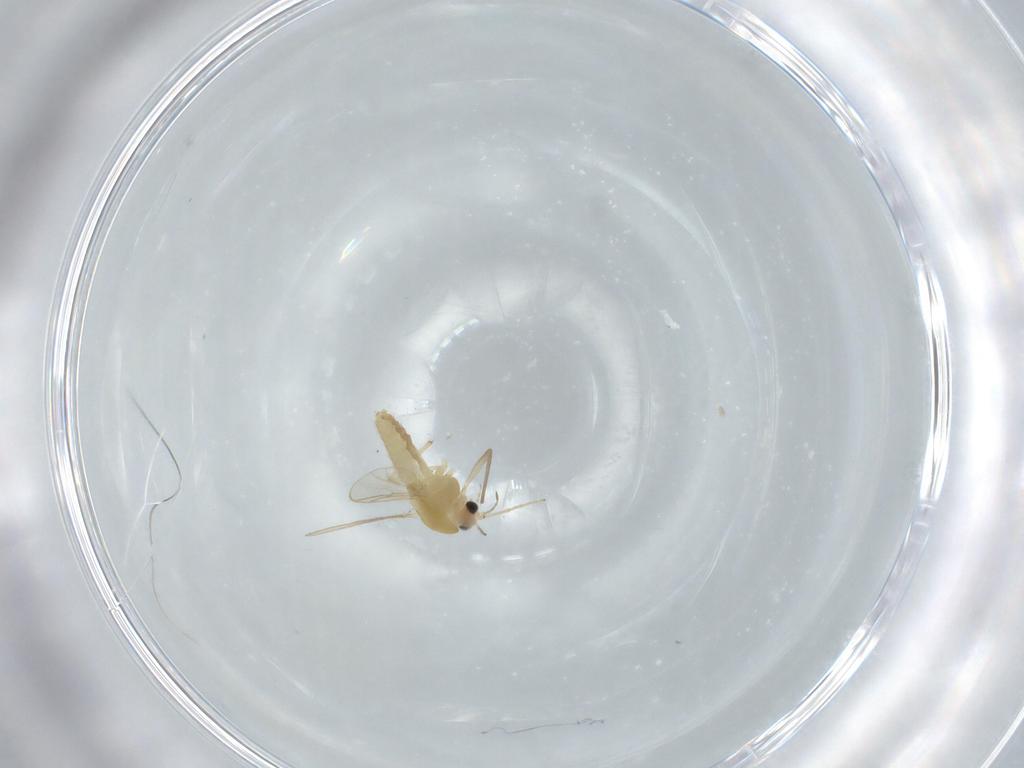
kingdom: Animalia
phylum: Arthropoda
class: Insecta
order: Diptera
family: Chironomidae
